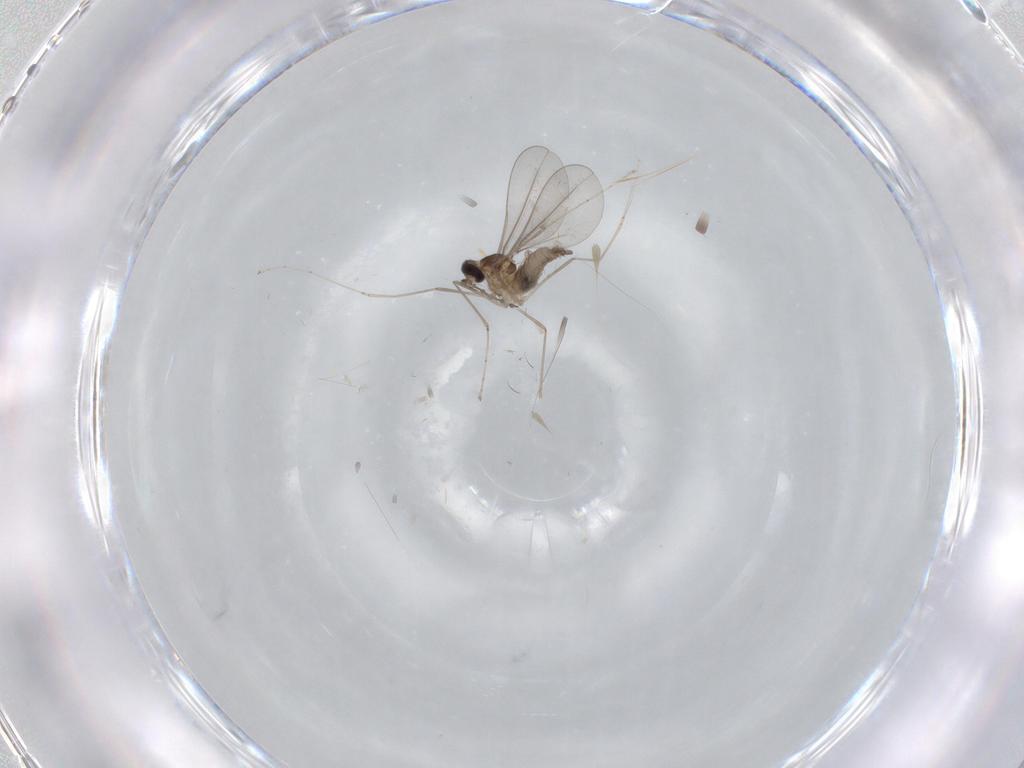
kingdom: Animalia
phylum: Arthropoda
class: Insecta
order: Diptera
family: Cecidomyiidae
